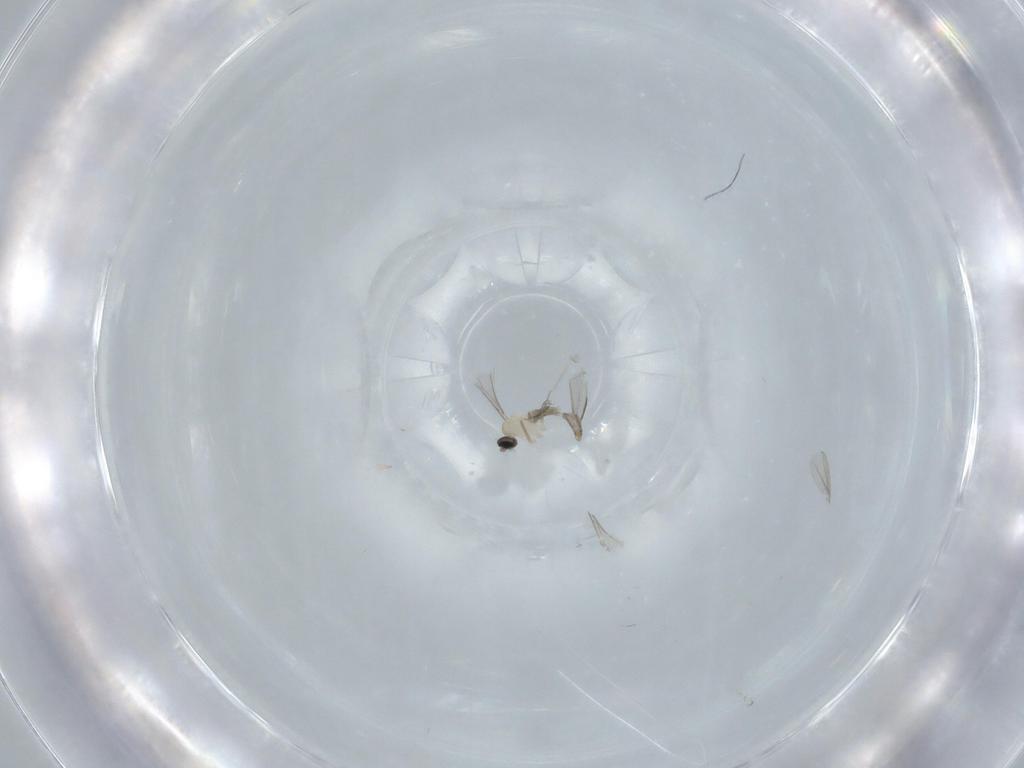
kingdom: Animalia
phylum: Arthropoda
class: Insecta
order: Diptera
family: Cecidomyiidae
